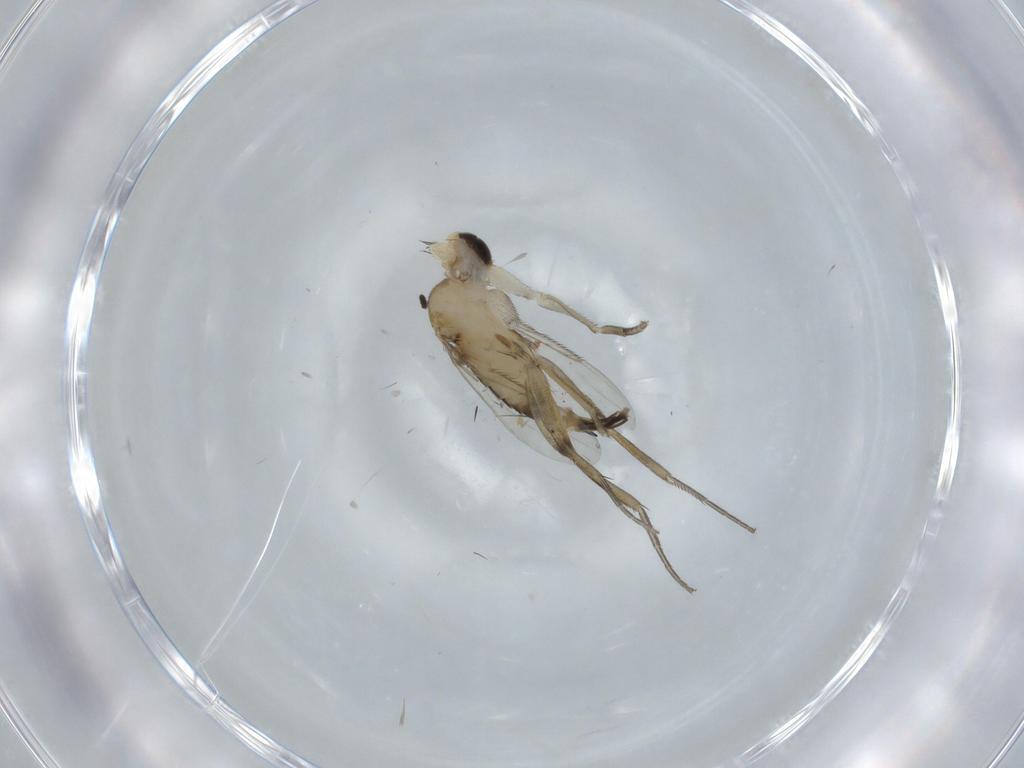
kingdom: Animalia
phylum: Arthropoda
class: Insecta
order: Diptera
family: Phoridae
